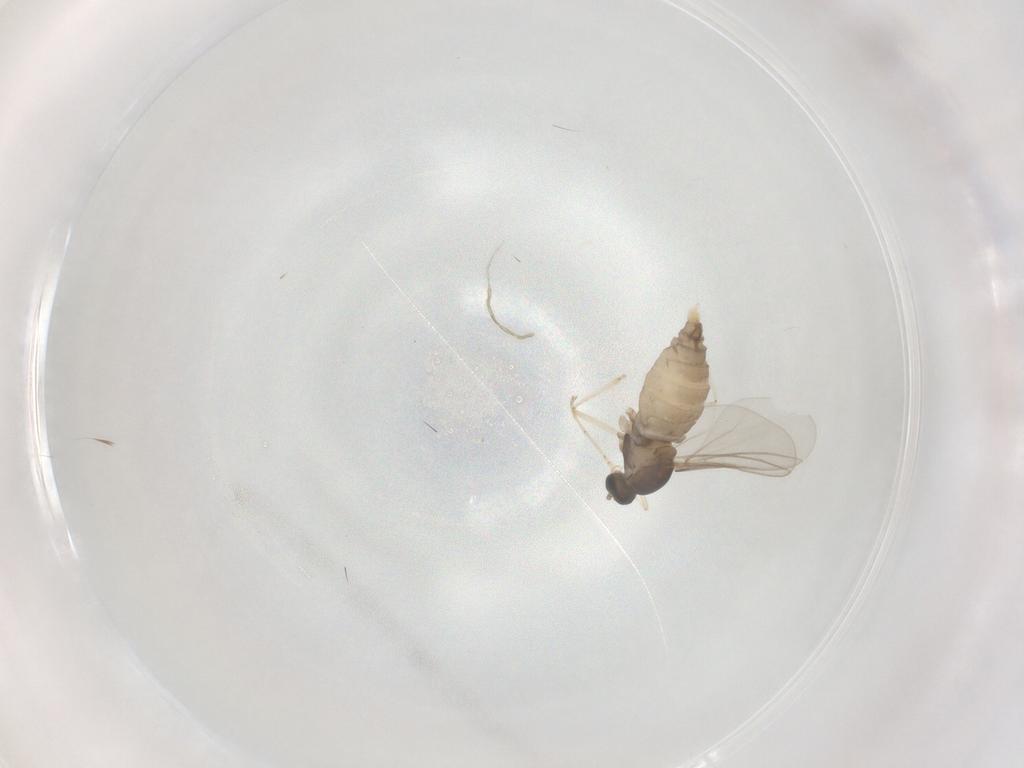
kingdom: Animalia
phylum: Arthropoda
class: Insecta
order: Diptera
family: Cecidomyiidae
